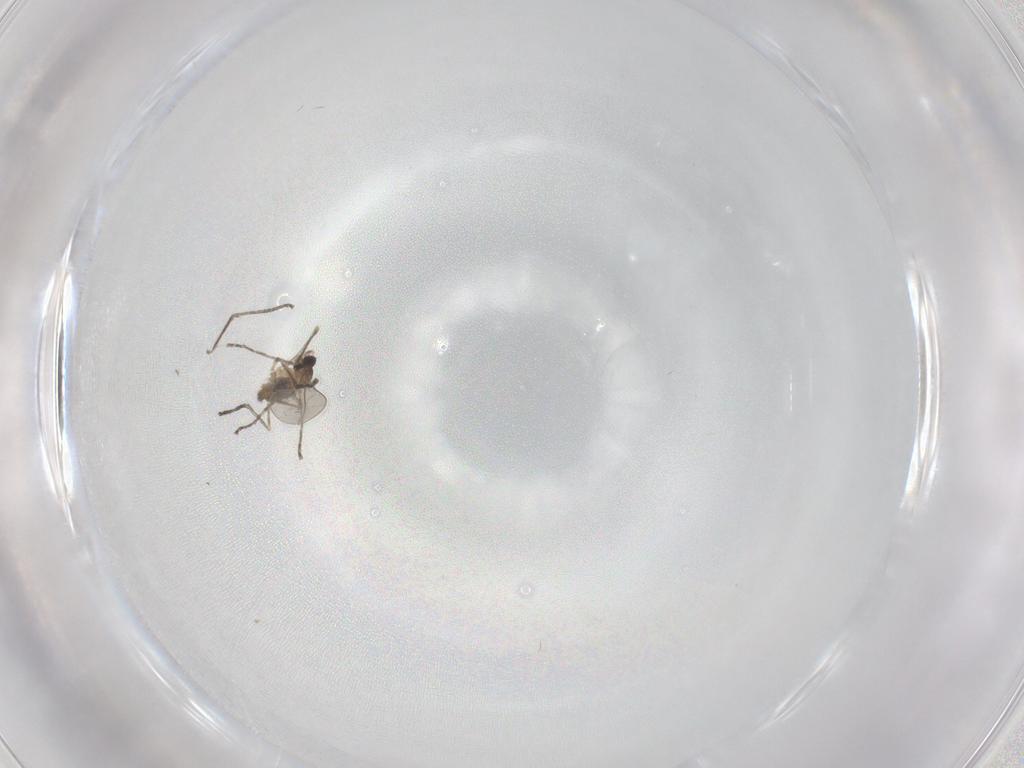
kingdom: Animalia
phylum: Arthropoda
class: Insecta
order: Diptera
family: Cecidomyiidae
